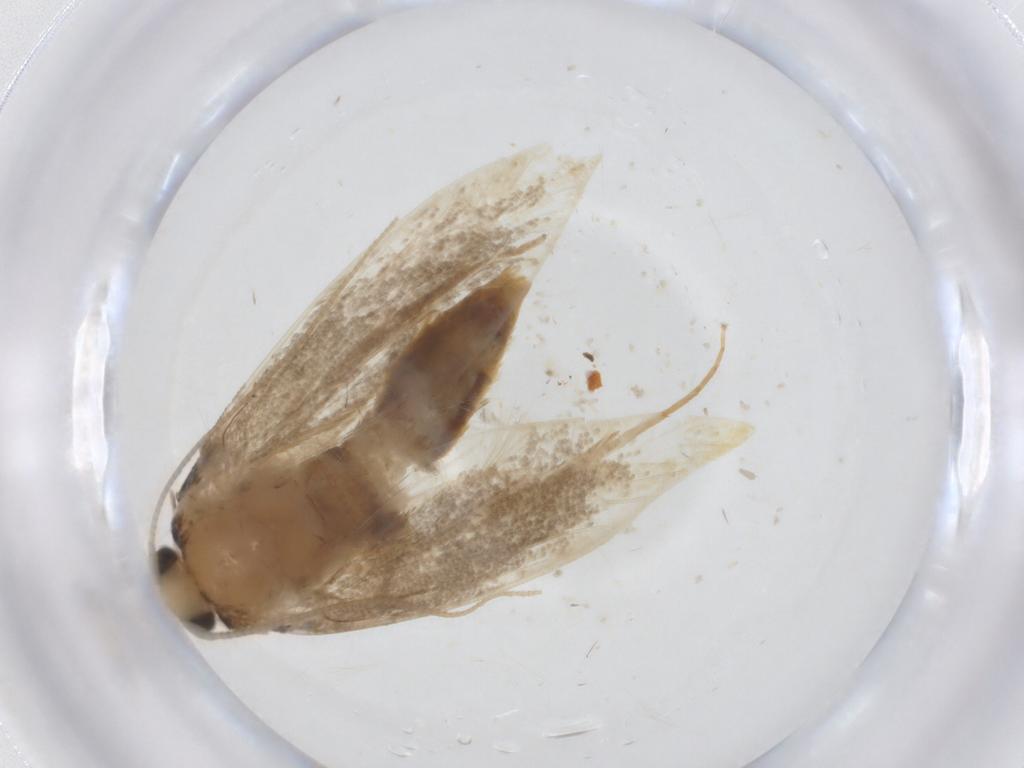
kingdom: Animalia
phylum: Arthropoda
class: Insecta
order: Lepidoptera
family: Tineidae
